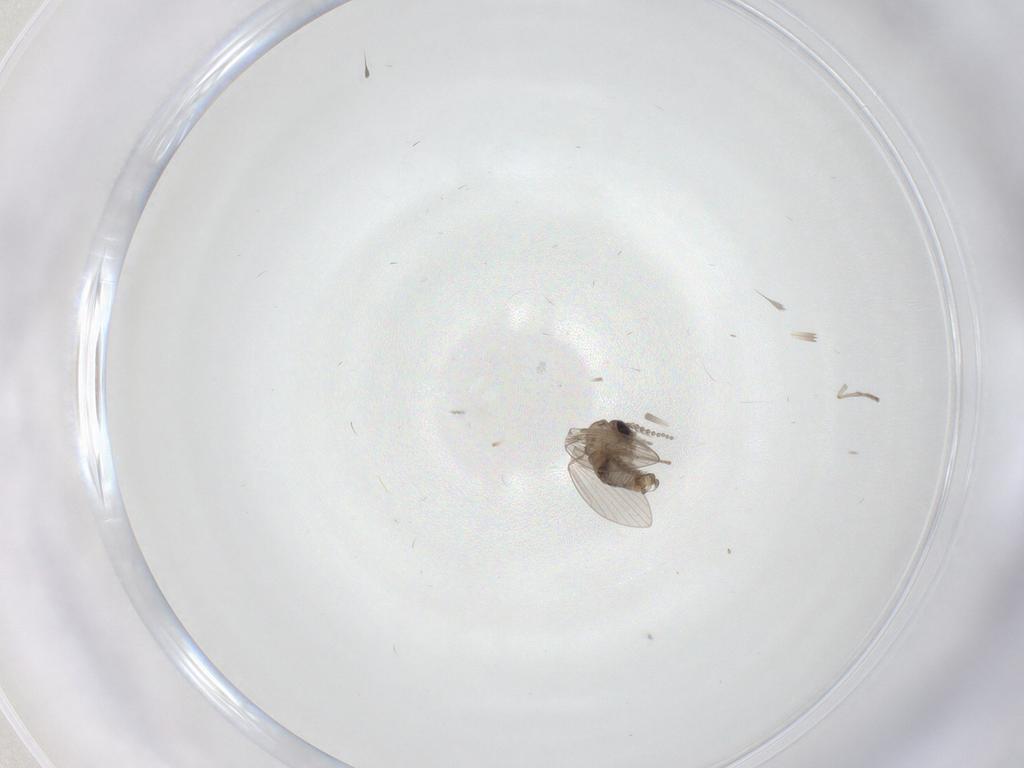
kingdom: Animalia
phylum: Arthropoda
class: Insecta
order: Diptera
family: Psychodidae
